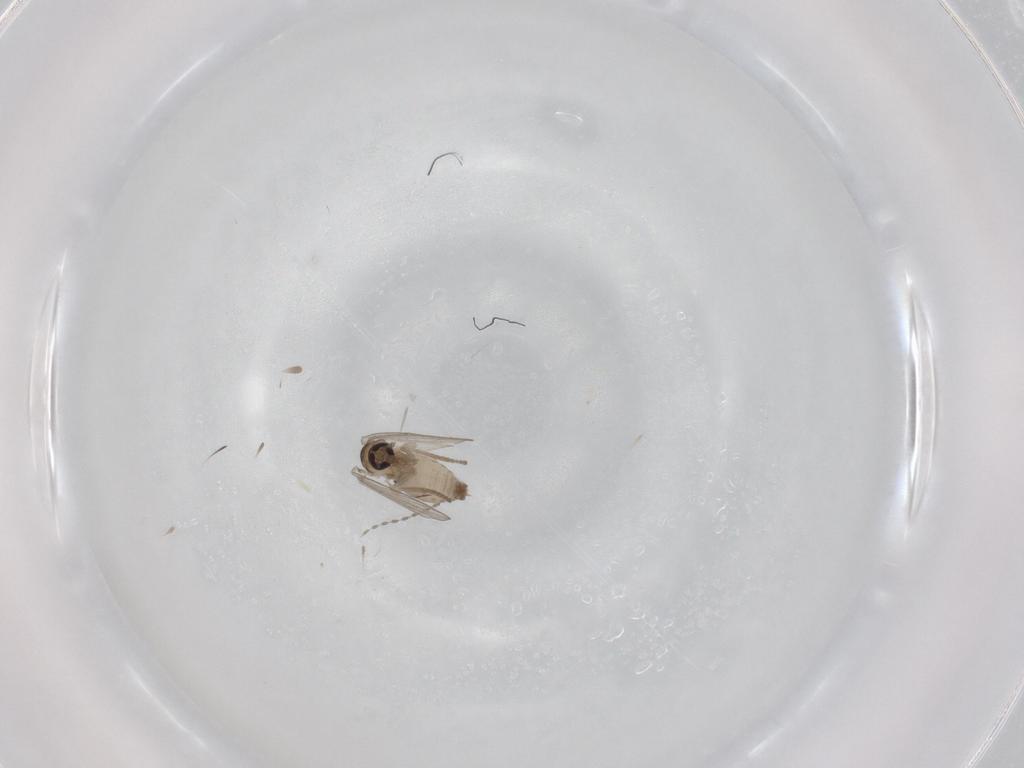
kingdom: Animalia
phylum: Arthropoda
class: Insecta
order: Diptera
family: Psychodidae
